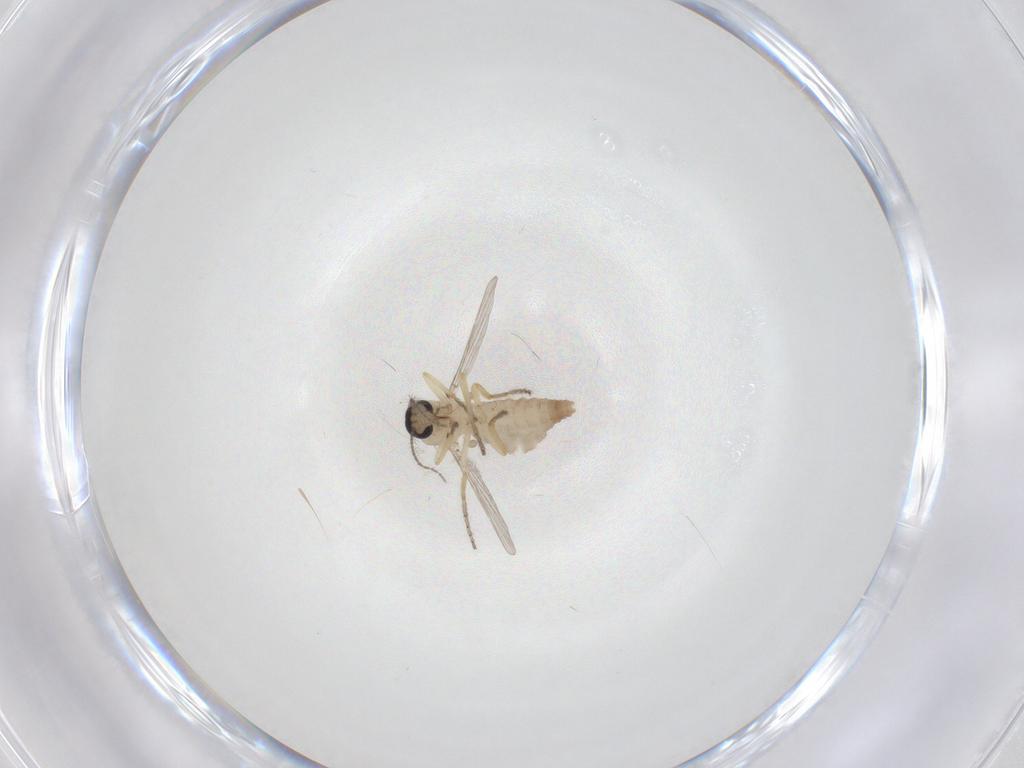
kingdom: Animalia
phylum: Arthropoda
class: Insecta
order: Diptera
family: Ceratopogonidae
